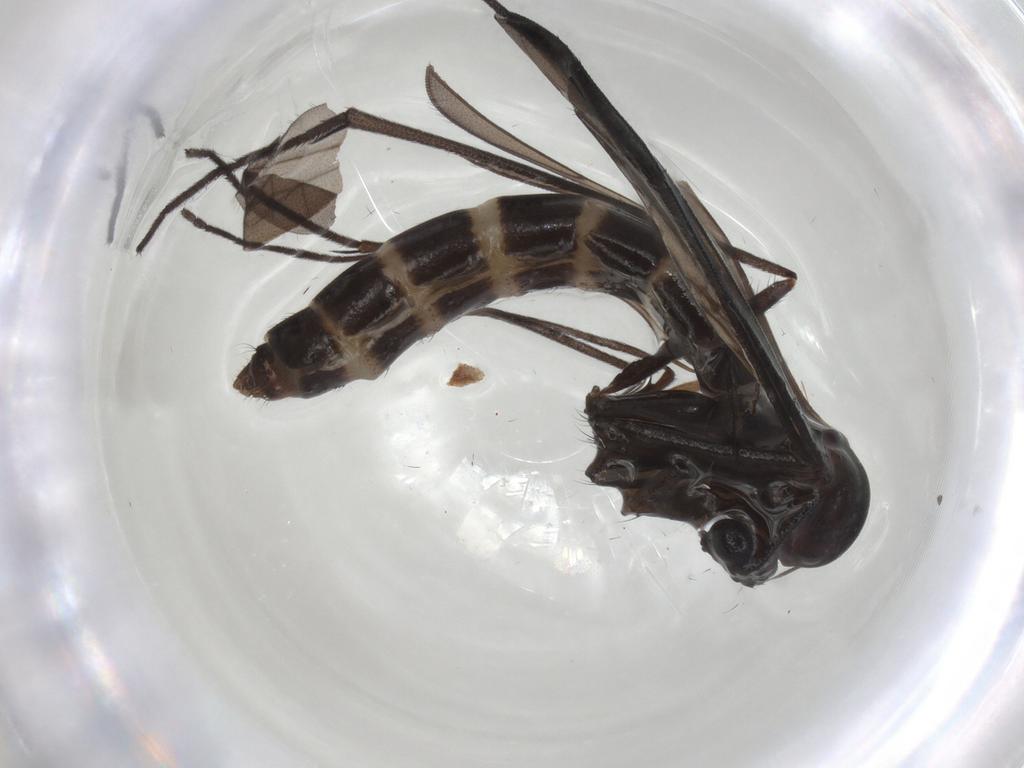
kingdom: Animalia
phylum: Arthropoda
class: Insecta
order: Diptera
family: Ditomyiidae
